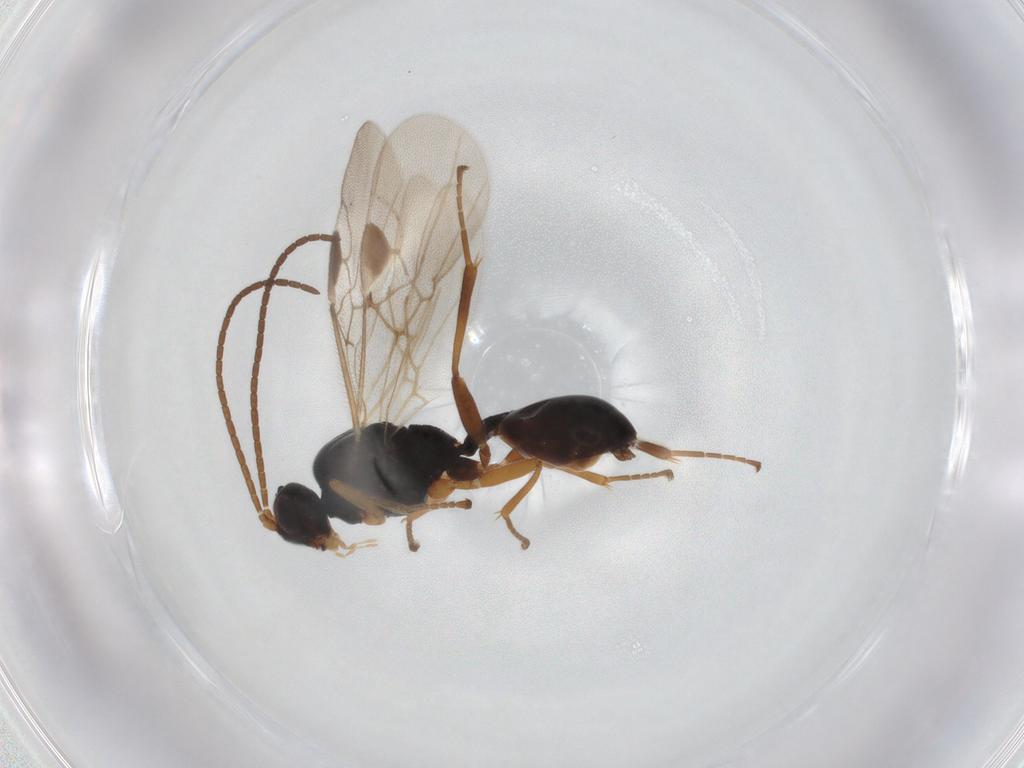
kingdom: Animalia
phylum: Arthropoda
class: Insecta
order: Hymenoptera
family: Braconidae
